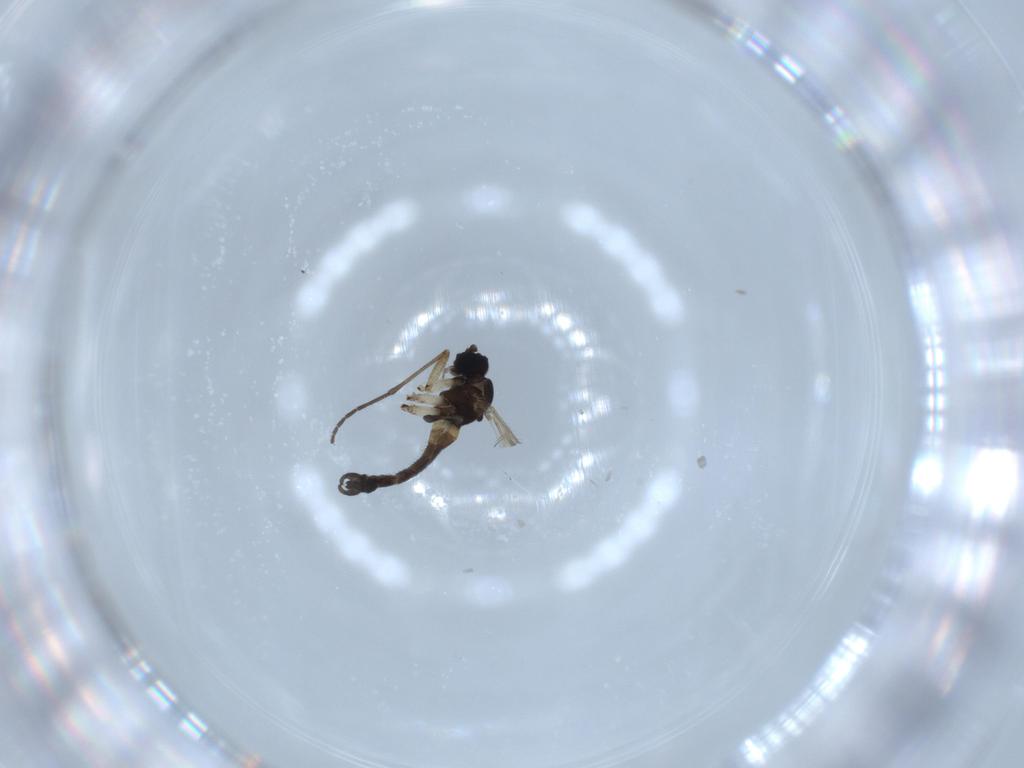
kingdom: Animalia
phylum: Arthropoda
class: Insecta
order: Diptera
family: Sciaridae
